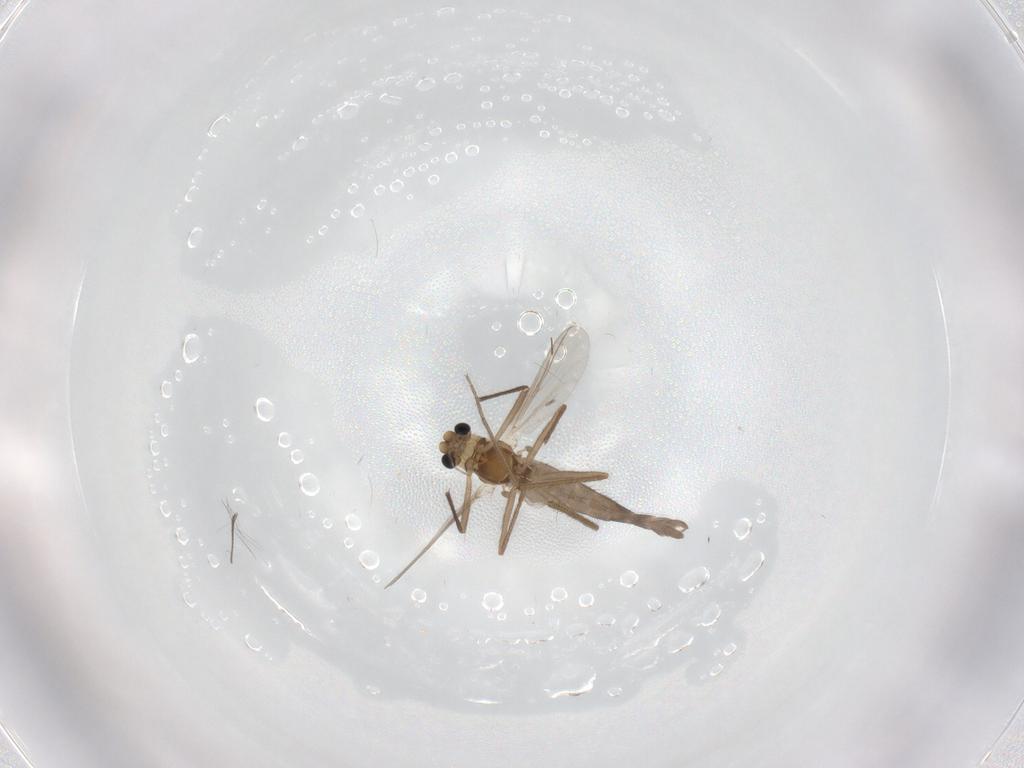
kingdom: Animalia
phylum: Arthropoda
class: Insecta
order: Diptera
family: Chironomidae
